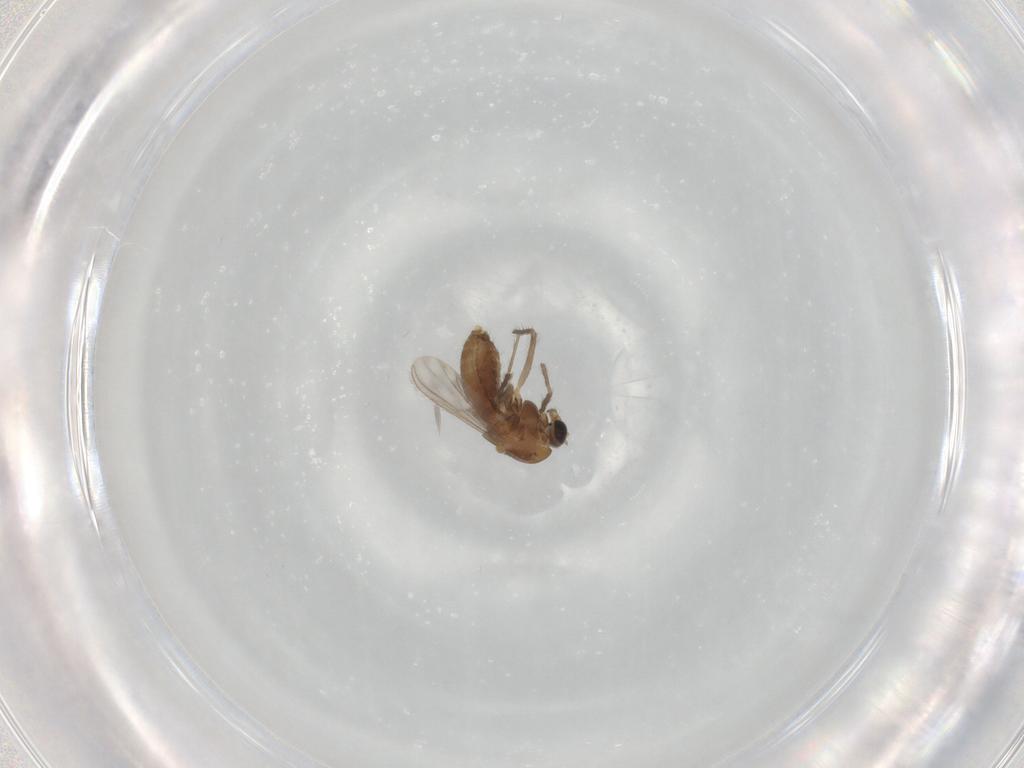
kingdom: Animalia
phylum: Arthropoda
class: Insecta
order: Diptera
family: Chironomidae
